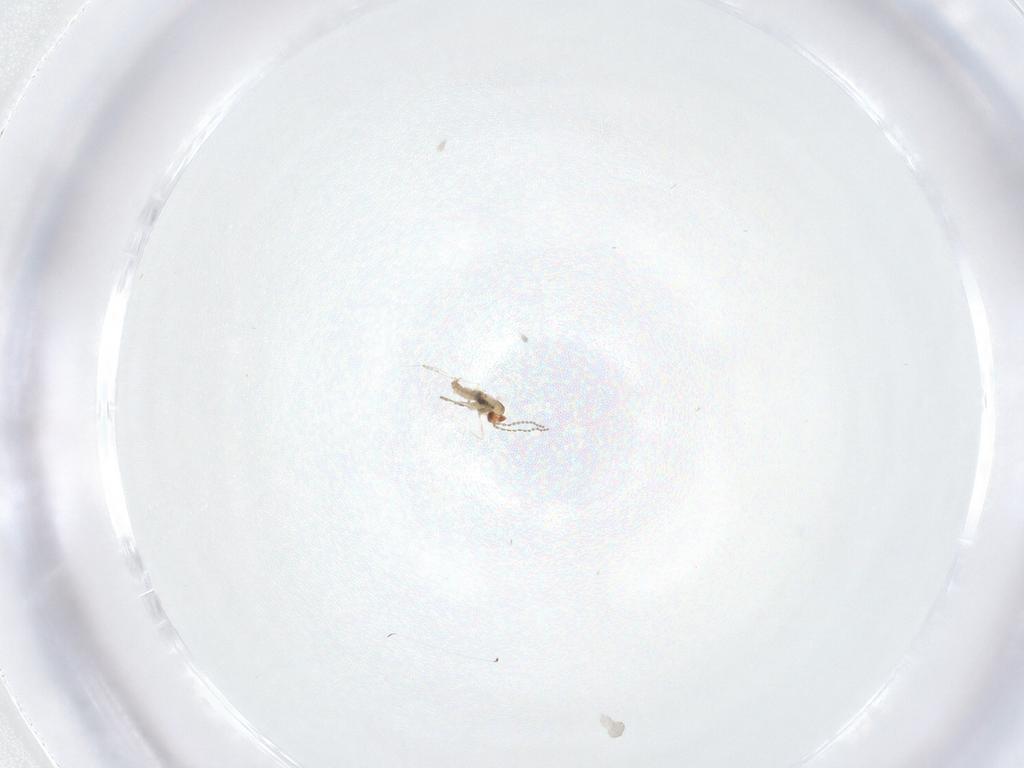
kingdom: Animalia
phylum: Arthropoda
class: Insecta
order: Diptera
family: Cecidomyiidae
